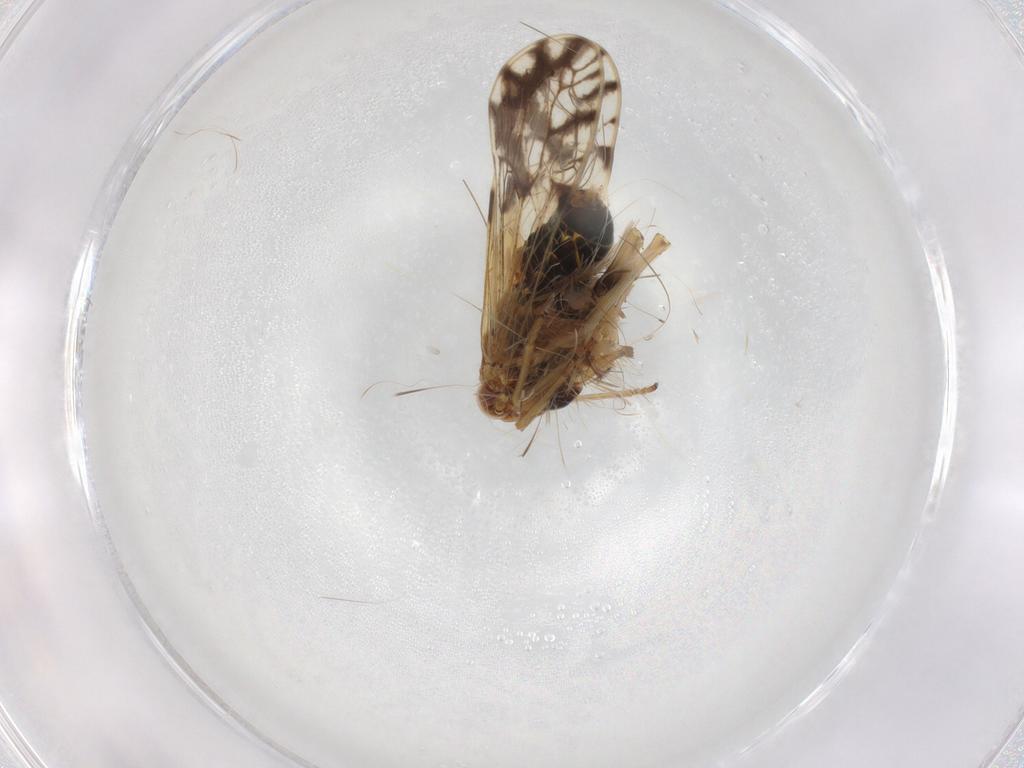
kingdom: Animalia
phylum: Arthropoda
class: Insecta
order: Hemiptera
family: Delphacidae
